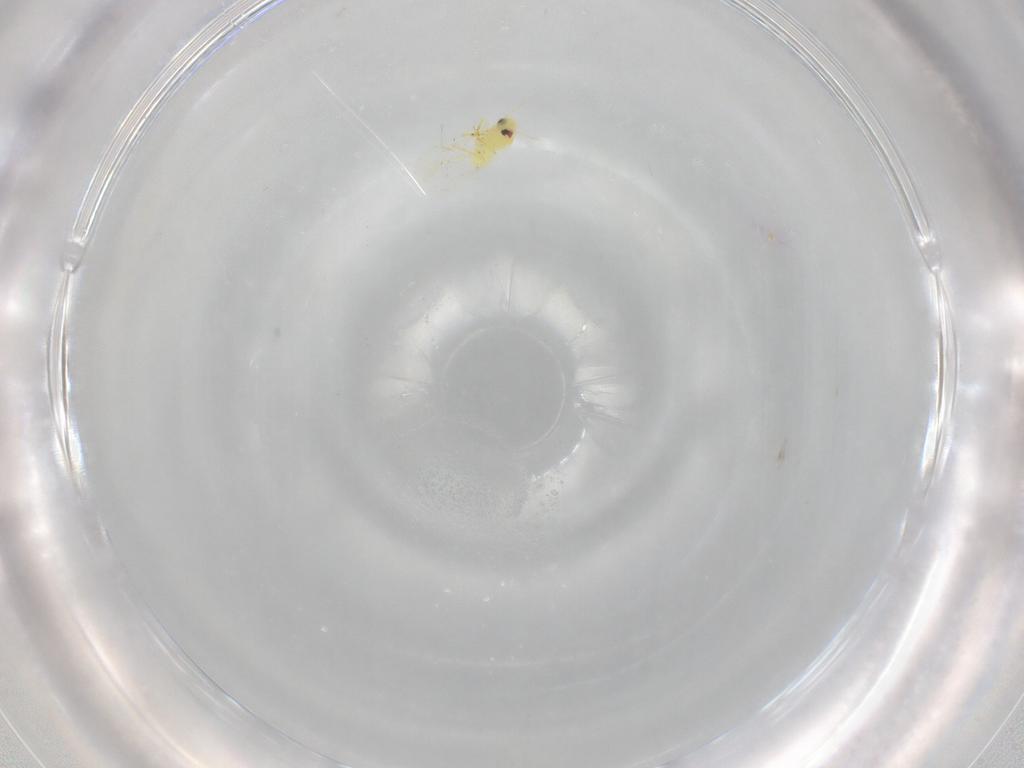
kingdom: Animalia
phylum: Arthropoda
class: Insecta
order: Hemiptera
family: Aleyrodidae
